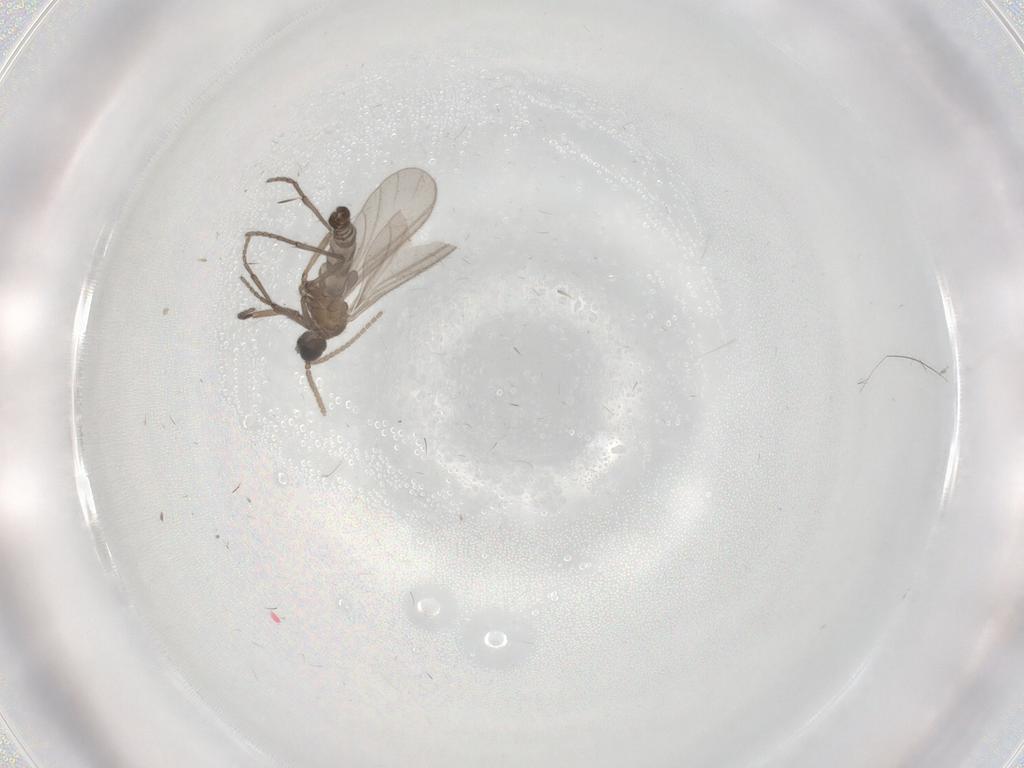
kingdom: Animalia
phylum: Arthropoda
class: Insecta
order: Diptera
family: Sciaridae
